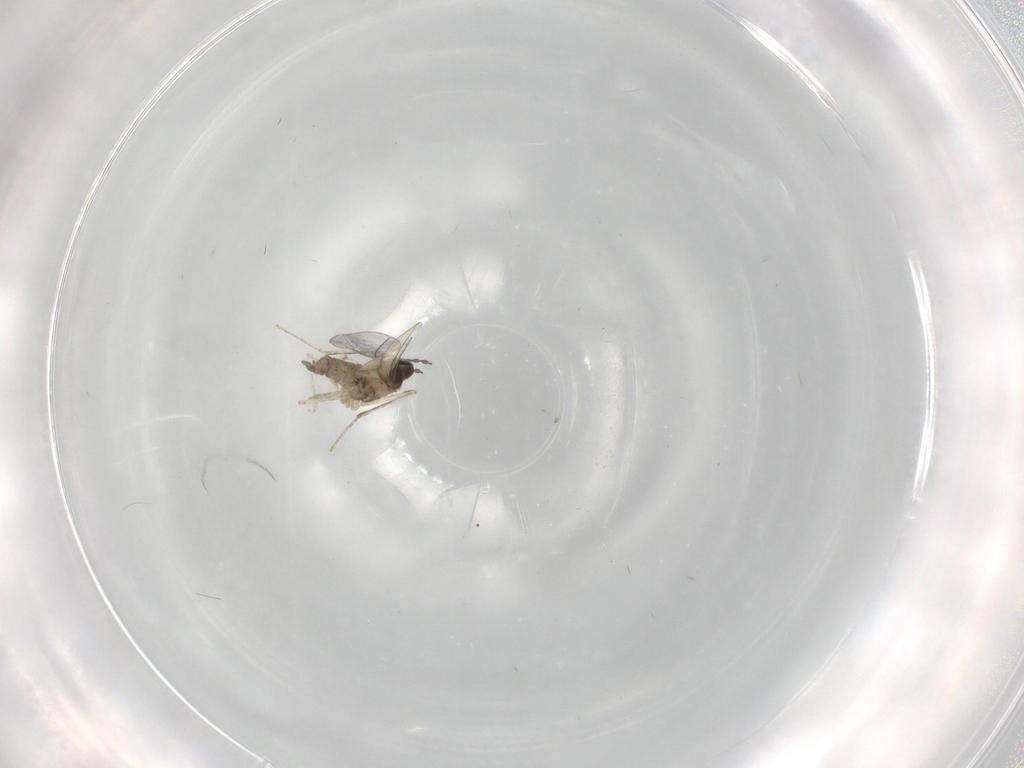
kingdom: Animalia
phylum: Arthropoda
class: Insecta
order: Diptera
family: Cecidomyiidae
